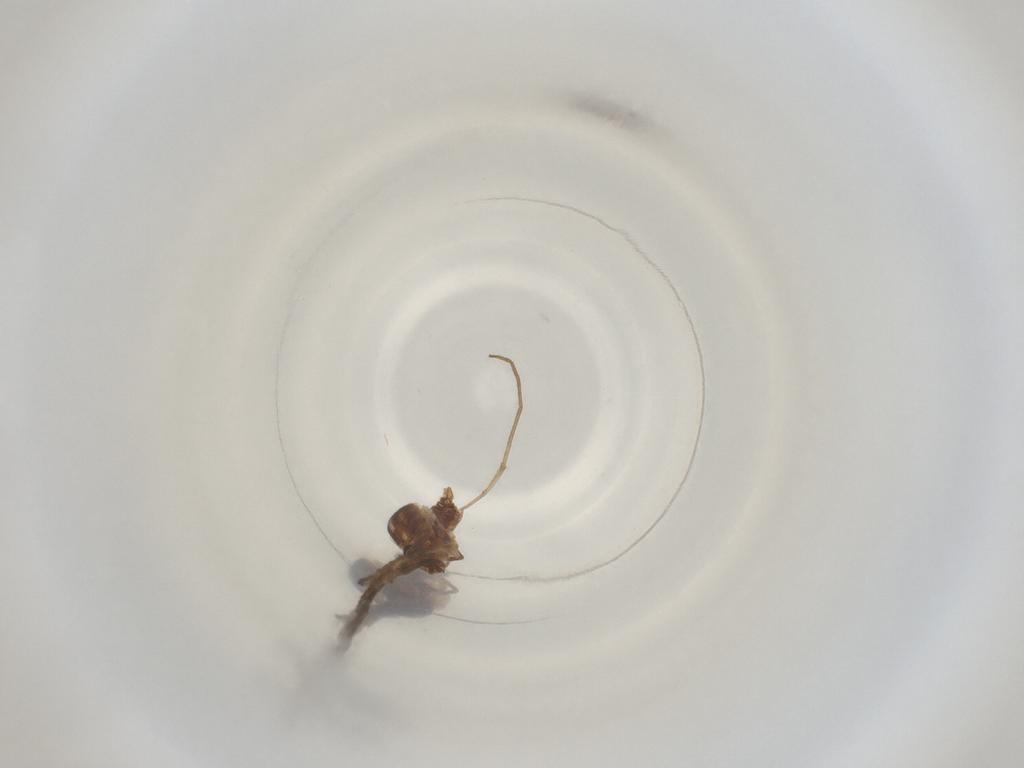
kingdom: Animalia
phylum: Arthropoda
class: Insecta
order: Diptera
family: Cecidomyiidae
